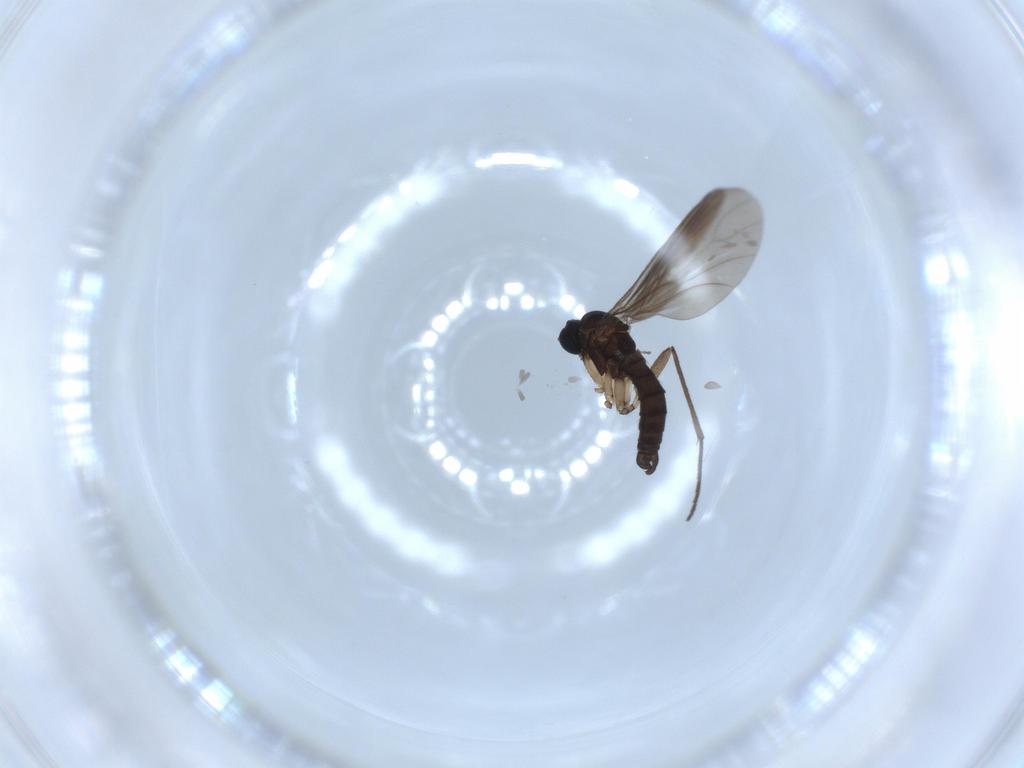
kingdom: Animalia
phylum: Arthropoda
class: Insecta
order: Diptera
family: Sciaridae
